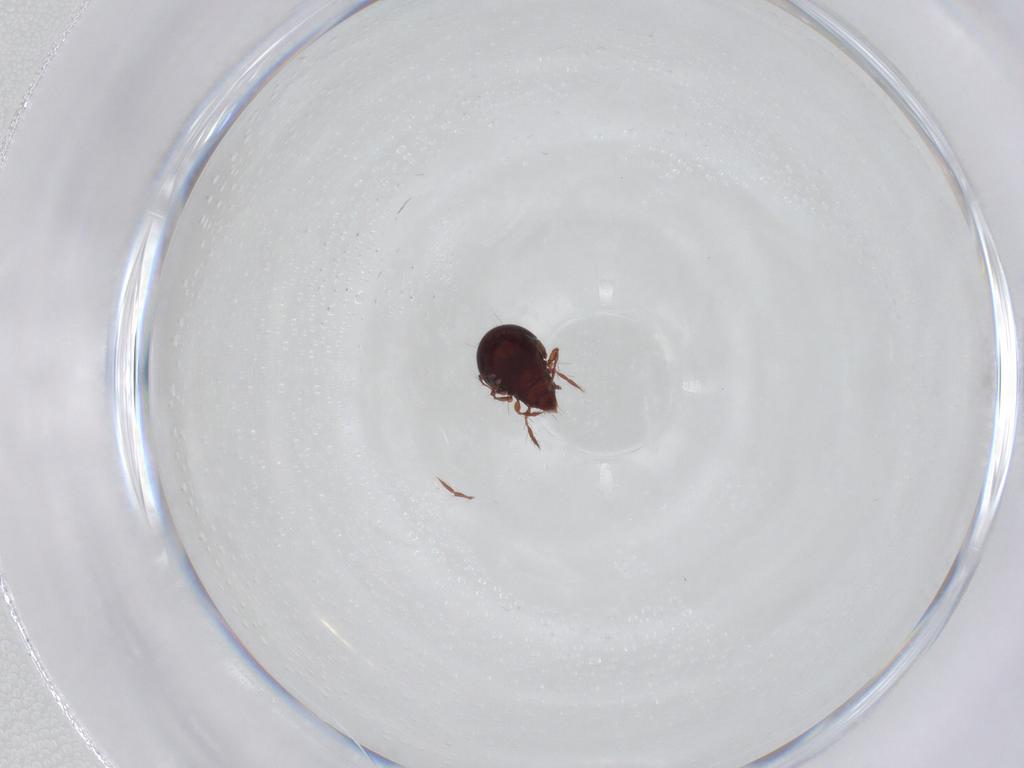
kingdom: Animalia
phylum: Arthropoda
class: Arachnida
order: Sarcoptiformes
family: Ceratoppiidae
